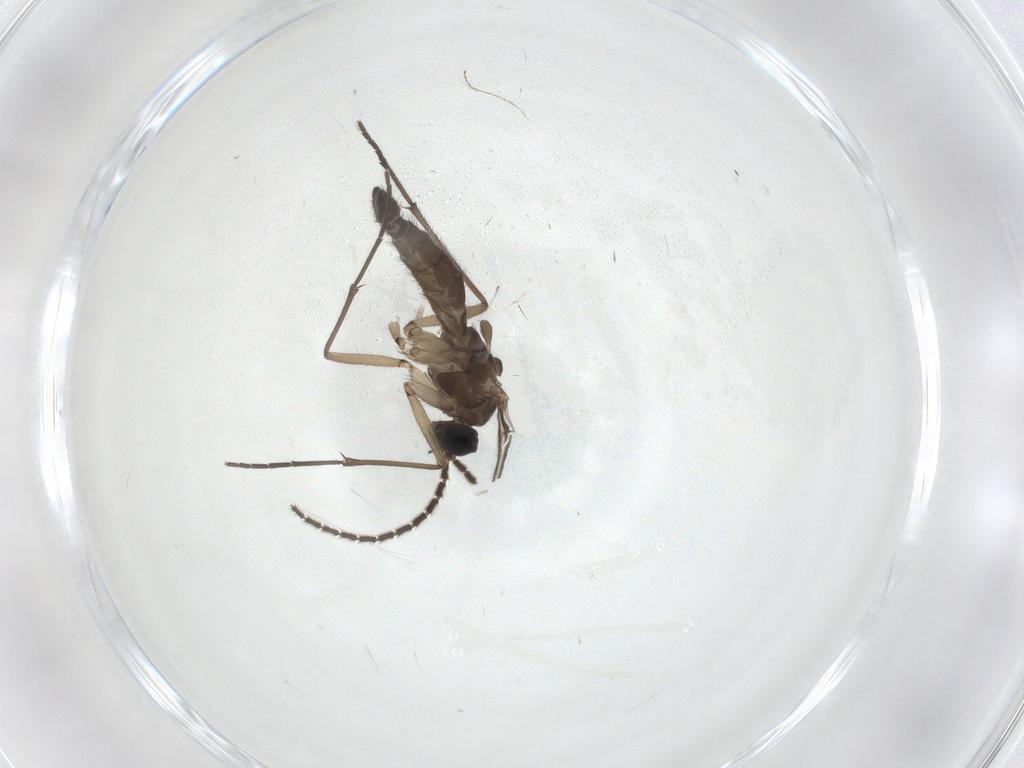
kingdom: Animalia
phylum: Arthropoda
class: Insecta
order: Diptera
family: Sciaridae
